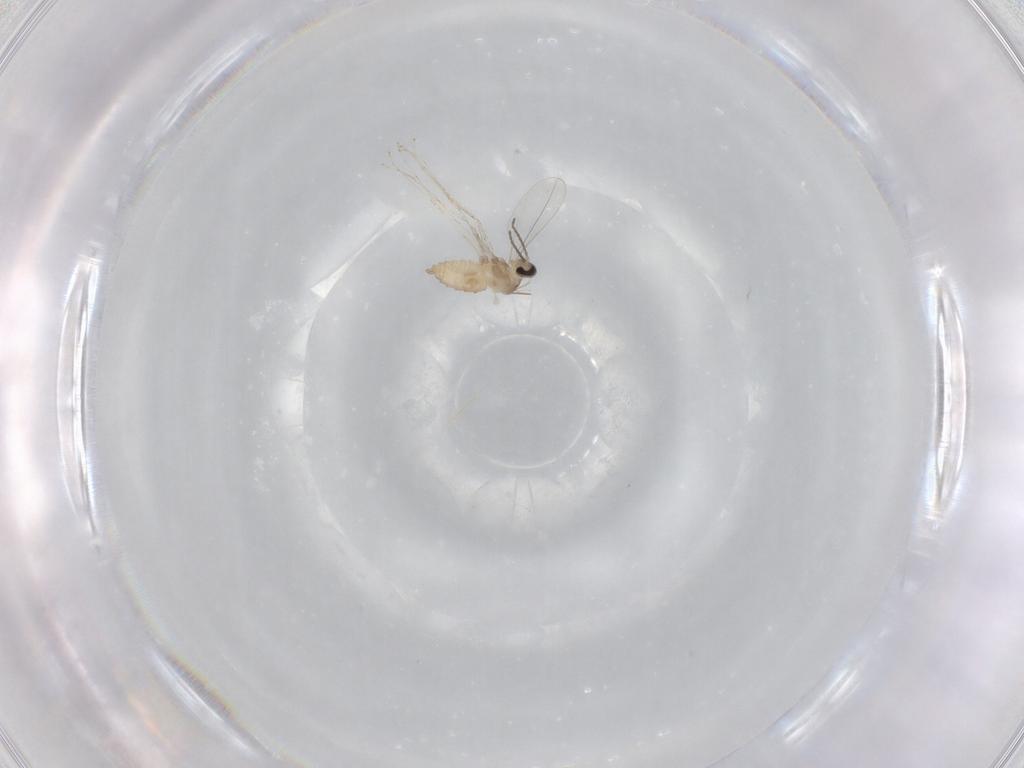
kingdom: Animalia
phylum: Arthropoda
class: Insecta
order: Diptera
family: Cecidomyiidae
